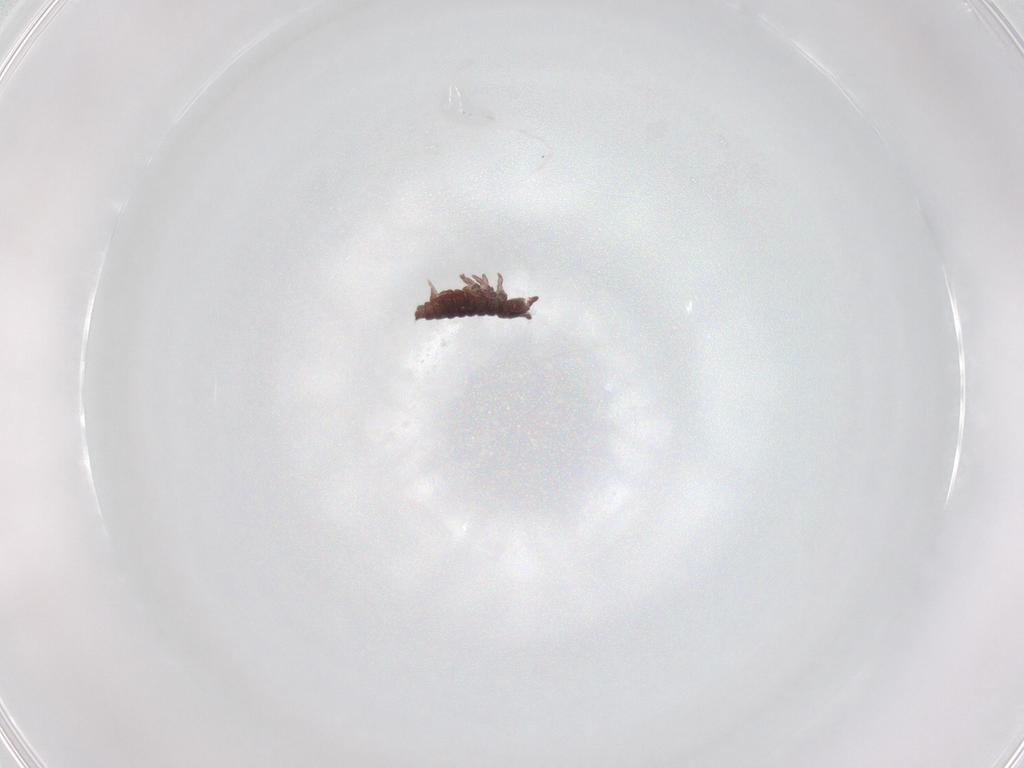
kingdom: Animalia
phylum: Arthropoda
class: Collembola
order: Poduromorpha
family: Hypogastruridae
